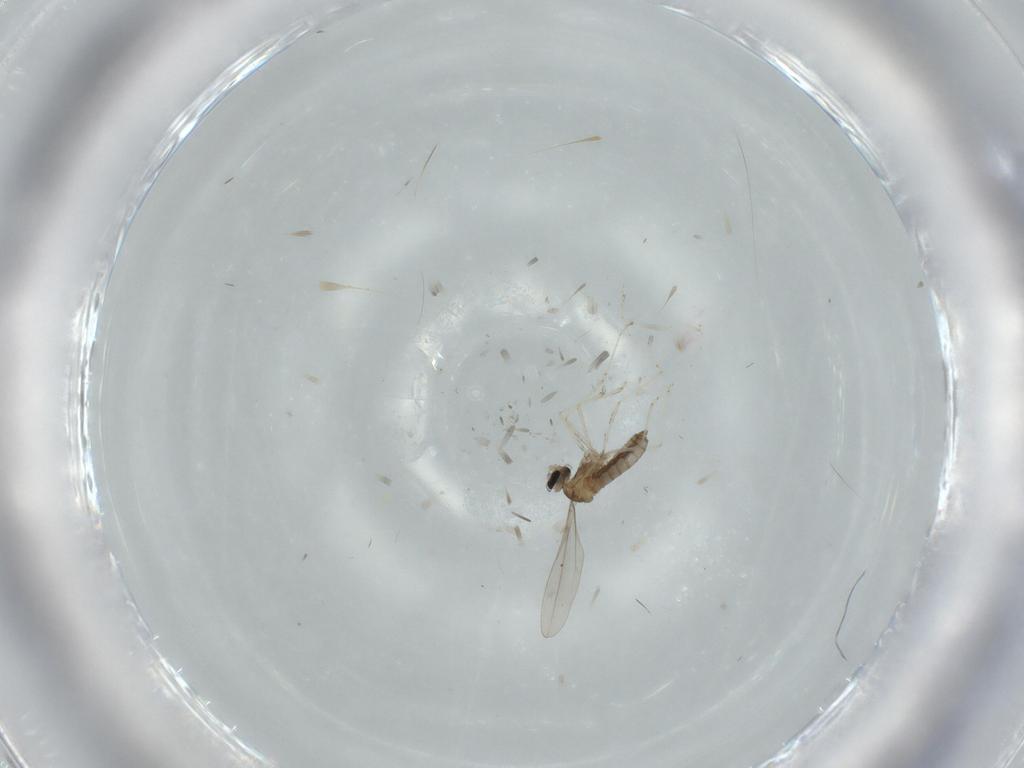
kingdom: Animalia
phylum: Arthropoda
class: Insecta
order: Diptera
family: Cecidomyiidae
